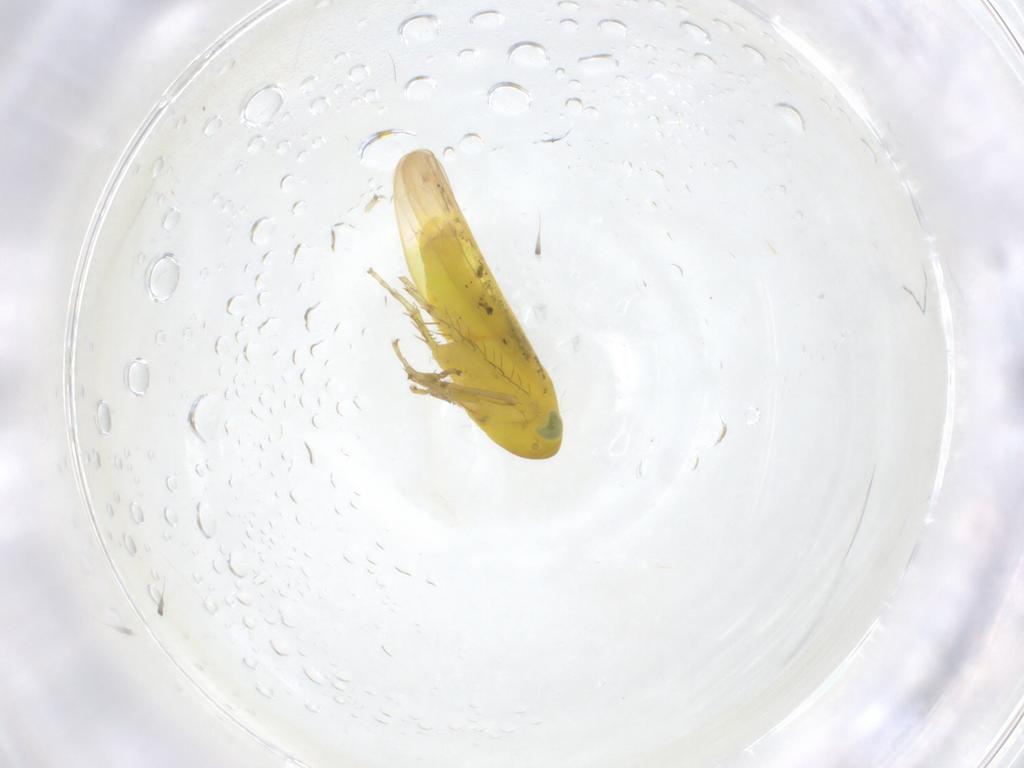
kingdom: Animalia
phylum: Arthropoda
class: Insecta
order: Hemiptera
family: Cicadellidae
